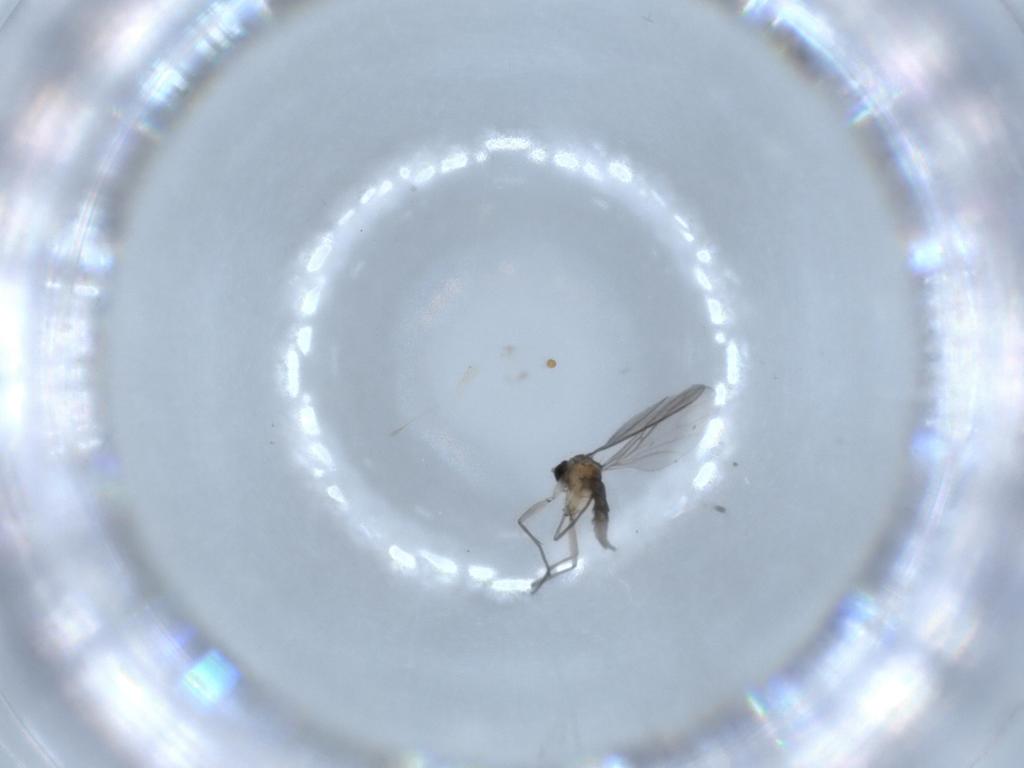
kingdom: Animalia
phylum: Arthropoda
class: Insecta
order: Diptera
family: Sciaridae
